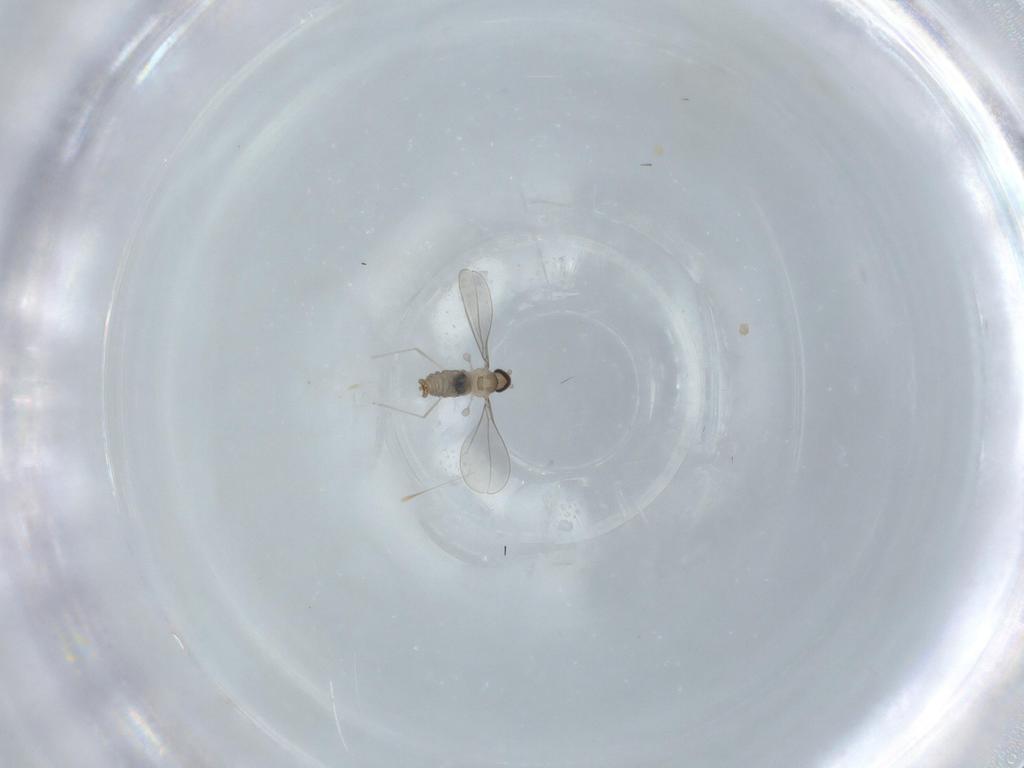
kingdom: Animalia
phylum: Arthropoda
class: Insecta
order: Diptera
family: Cecidomyiidae
